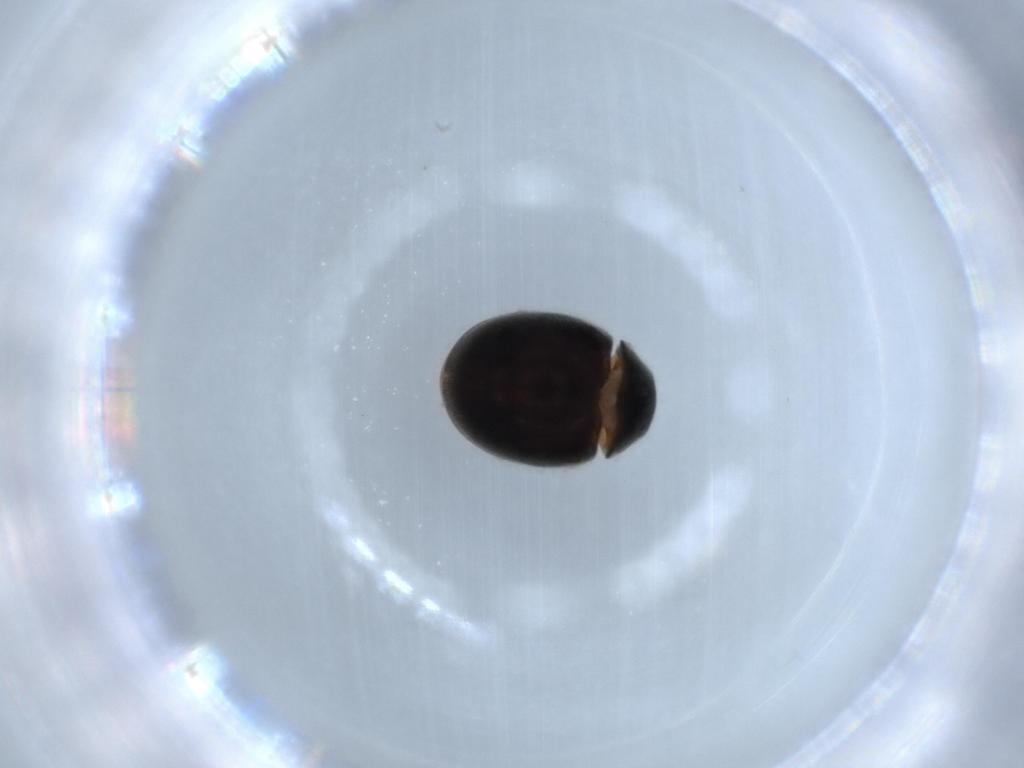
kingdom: Animalia
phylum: Arthropoda
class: Insecta
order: Coleoptera
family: Coccinellidae
